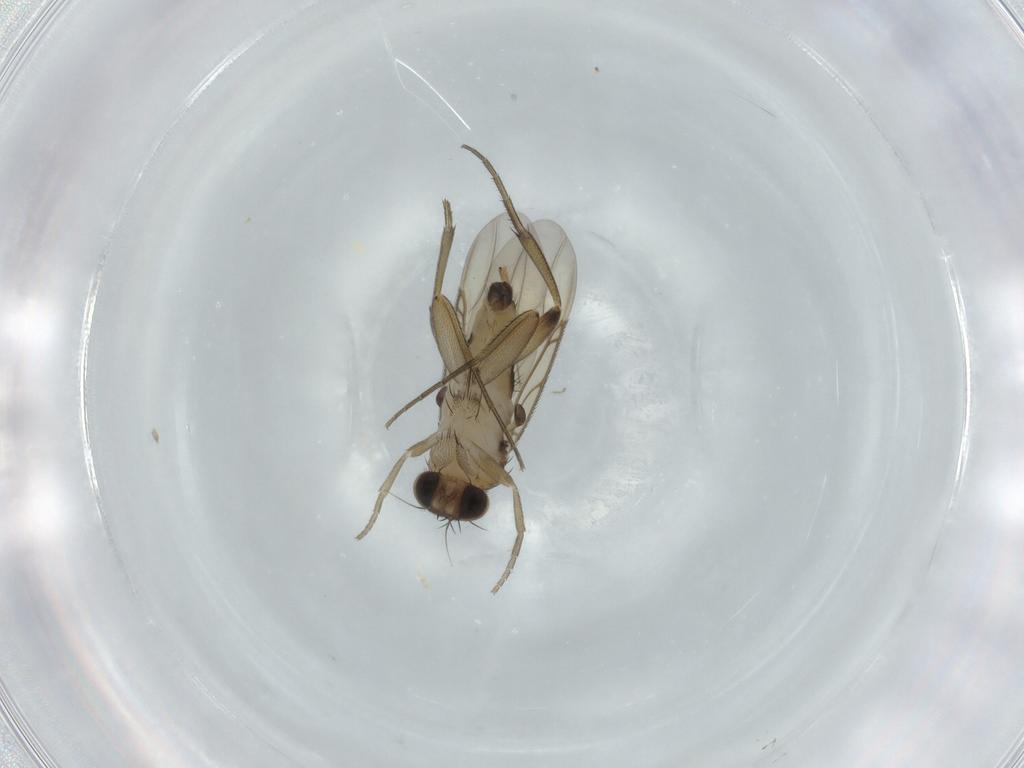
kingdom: Animalia
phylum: Arthropoda
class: Insecta
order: Diptera
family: Phoridae
